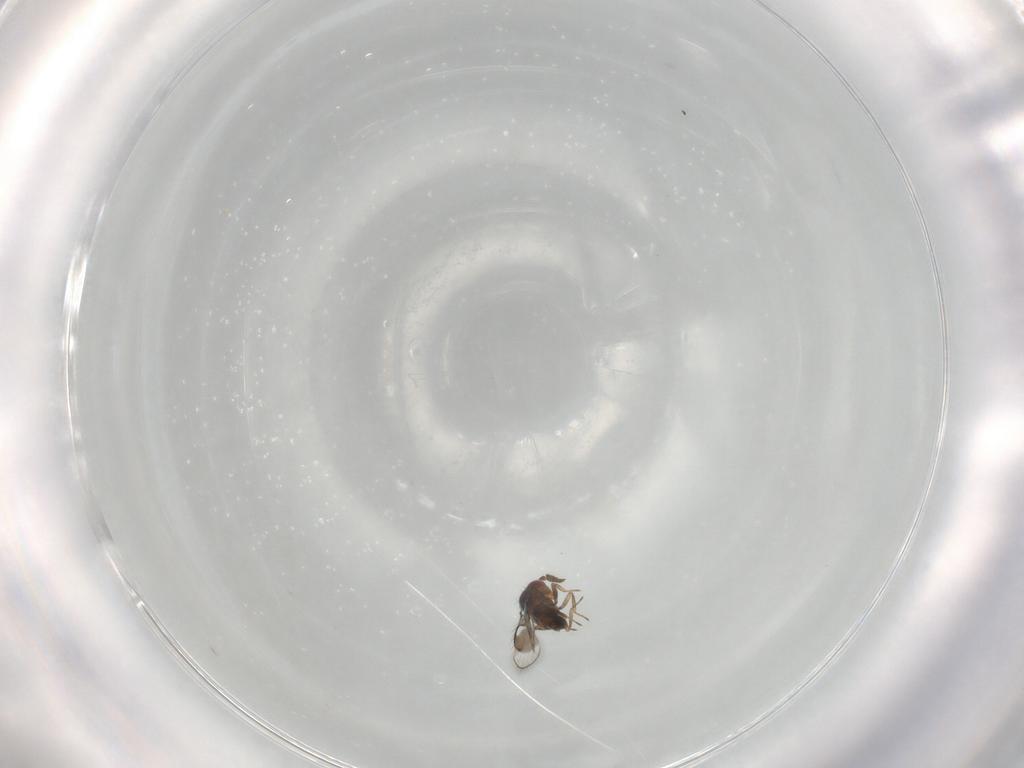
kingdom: Animalia
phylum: Arthropoda
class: Insecta
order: Hymenoptera
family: Trichogrammatidae
